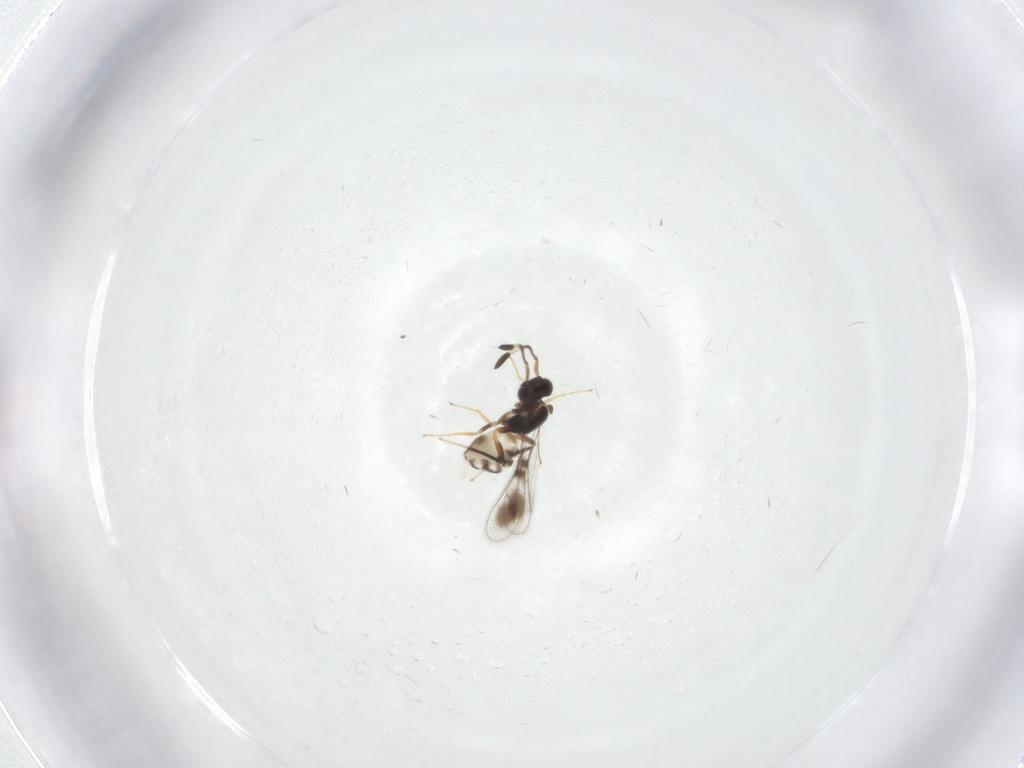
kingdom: Animalia
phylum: Arthropoda
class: Insecta
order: Hymenoptera
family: Mymaridae
